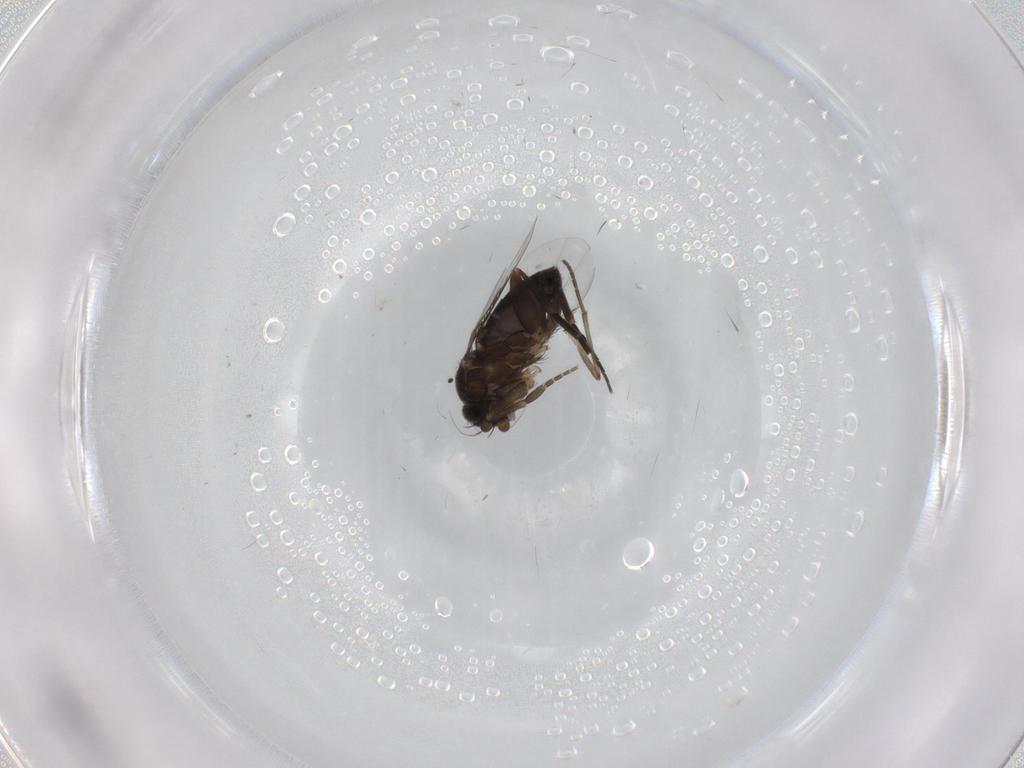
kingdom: Animalia
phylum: Arthropoda
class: Insecta
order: Diptera
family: Phoridae
